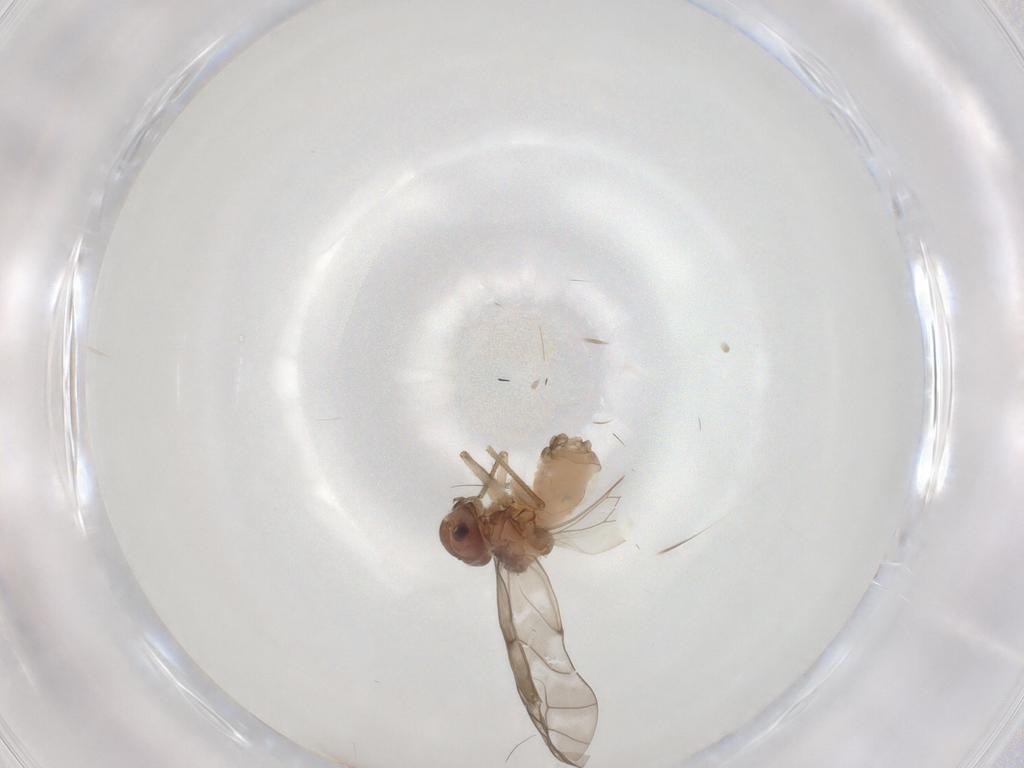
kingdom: Animalia
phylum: Arthropoda
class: Insecta
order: Psocodea
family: Peripsocidae
